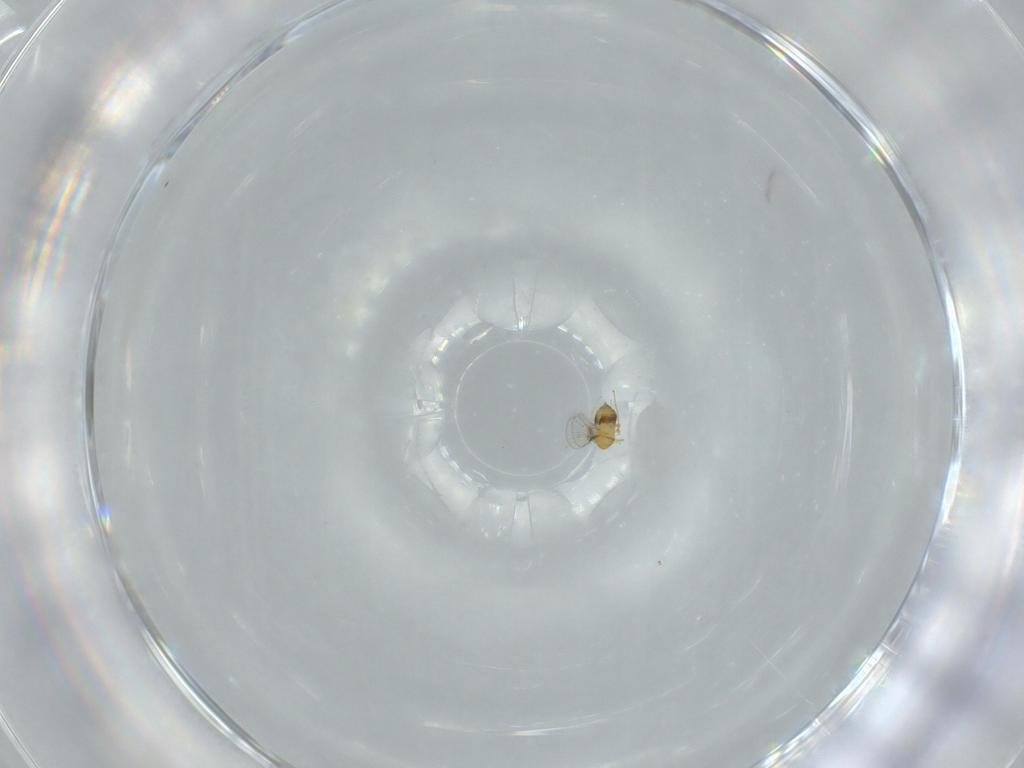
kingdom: Animalia
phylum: Arthropoda
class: Insecta
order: Hymenoptera
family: Trichogrammatidae
